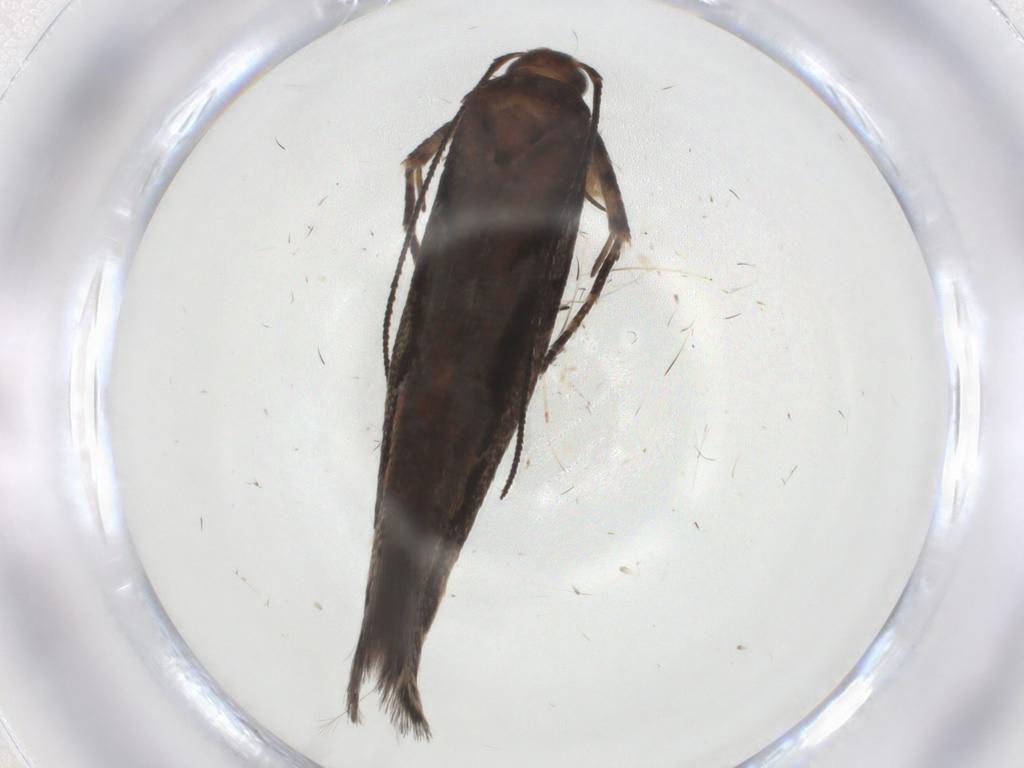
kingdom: Animalia
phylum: Arthropoda
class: Insecta
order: Lepidoptera
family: Gelechiidae
